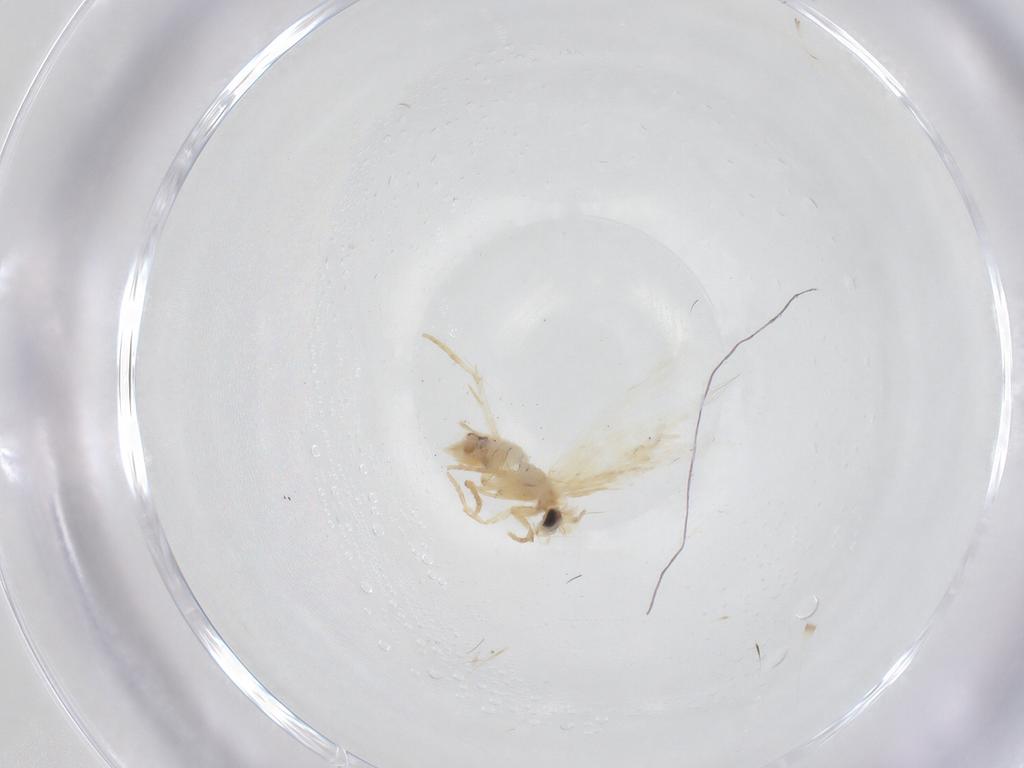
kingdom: Animalia
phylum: Arthropoda
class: Insecta
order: Lepidoptera
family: Nepticulidae
